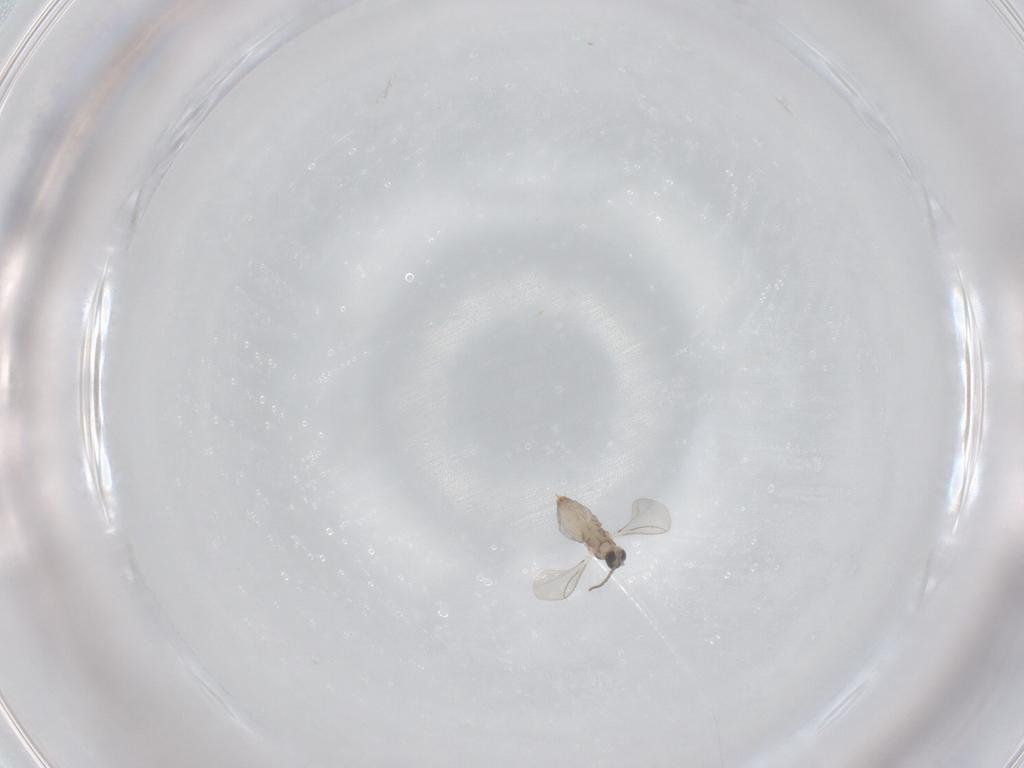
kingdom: Animalia
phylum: Arthropoda
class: Insecta
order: Diptera
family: Cecidomyiidae
